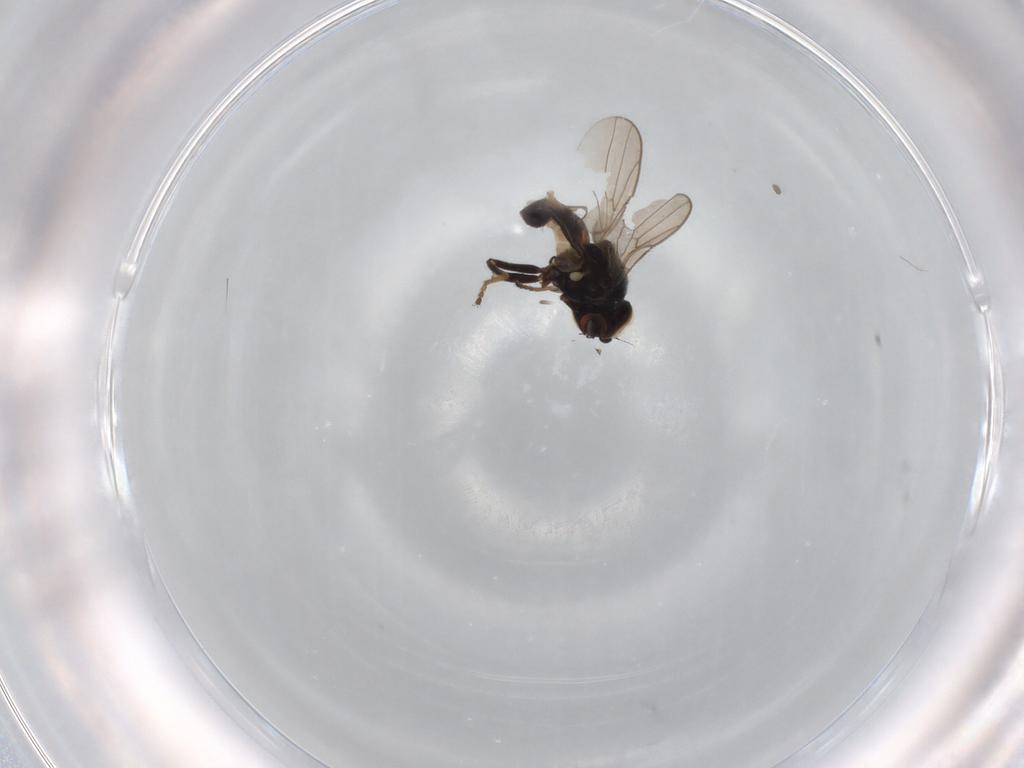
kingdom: Animalia
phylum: Arthropoda
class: Insecta
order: Diptera
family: Chloropidae
